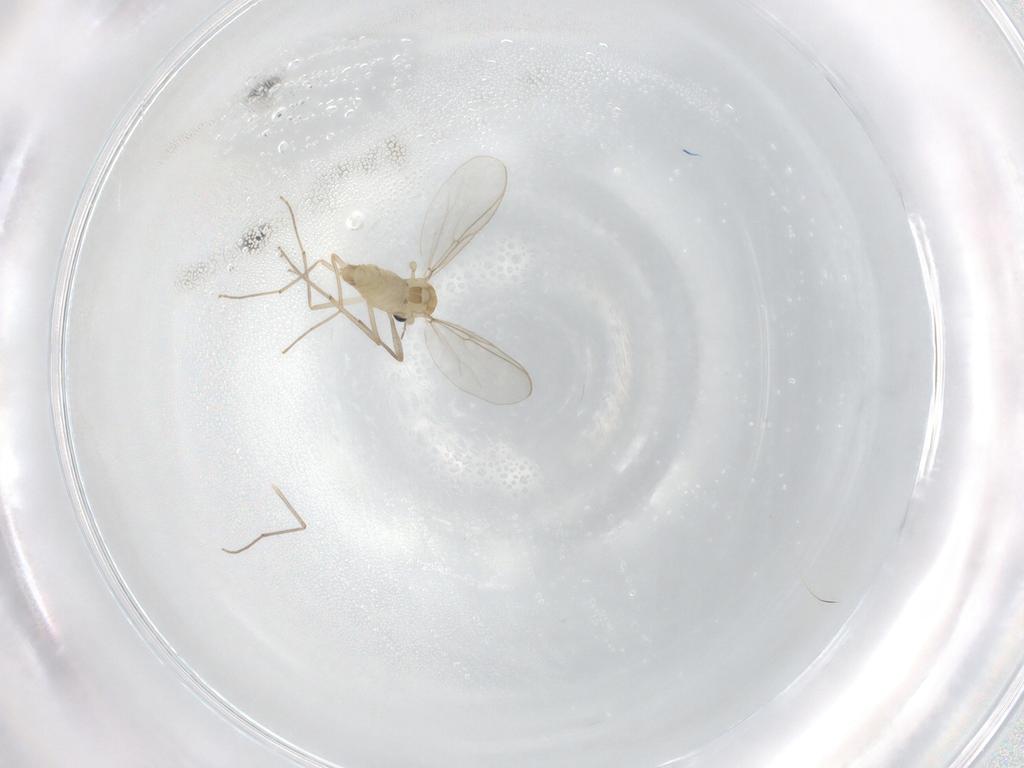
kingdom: Animalia
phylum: Arthropoda
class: Insecta
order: Diptera
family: Chironomidae
